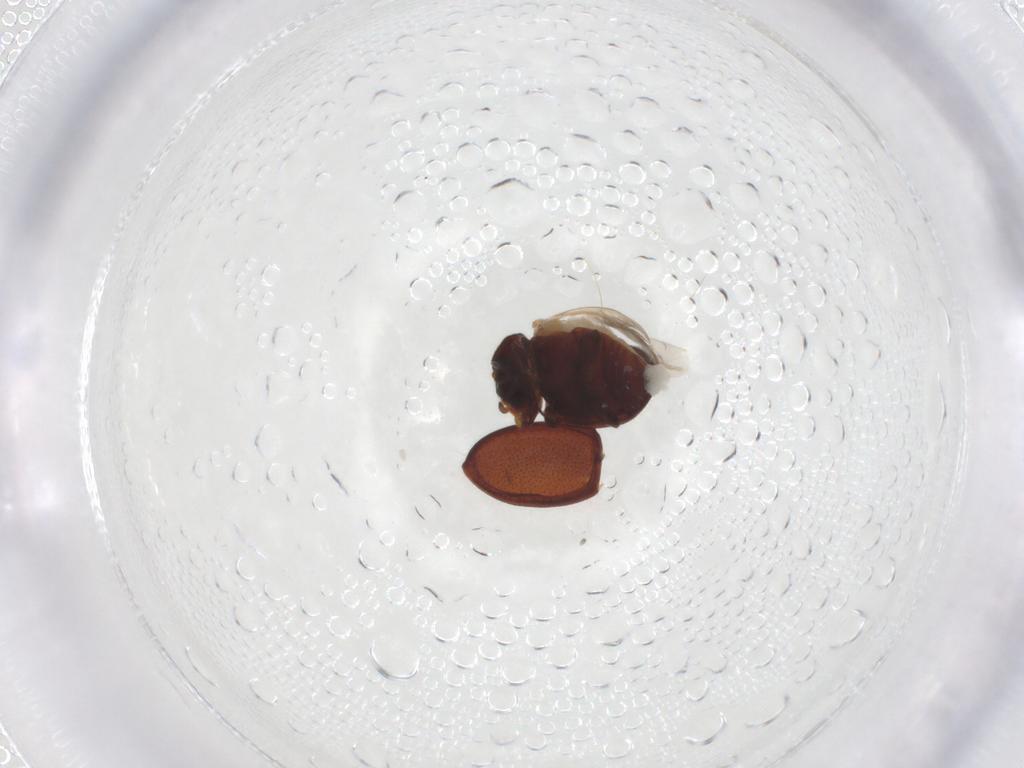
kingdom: Animalia
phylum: Arthropoda
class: Insecta
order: Coleoptera
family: Coccinellidae
